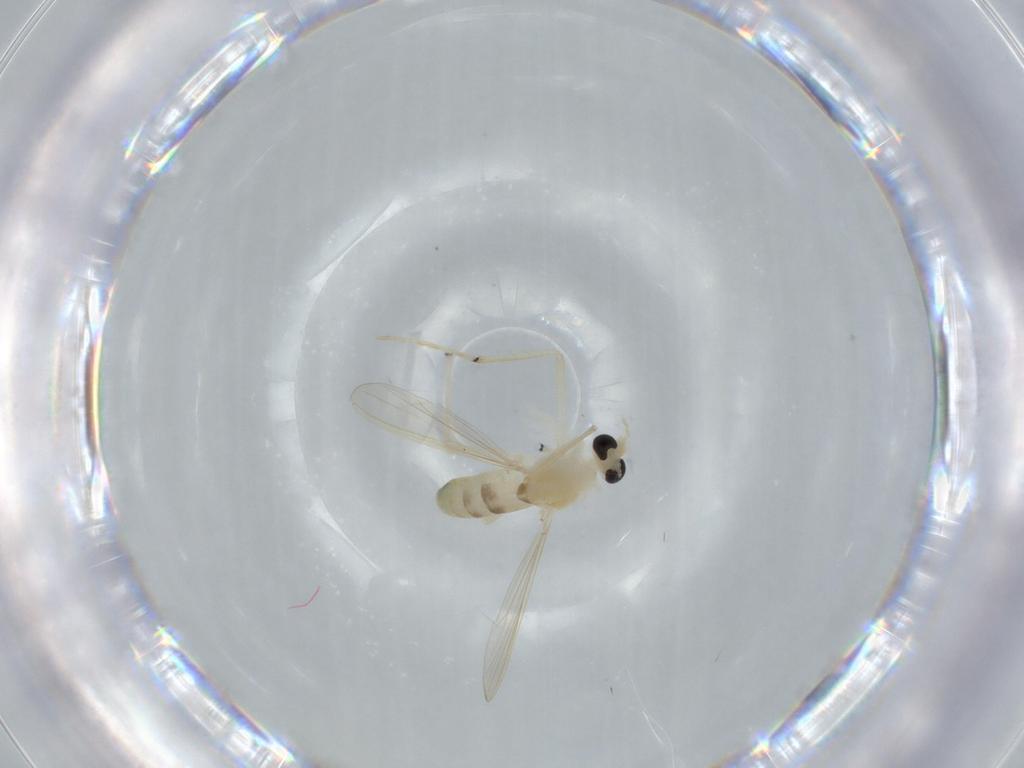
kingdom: Animalia
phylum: Arthropoda
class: Insecta
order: Diptera
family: Chironomidae
